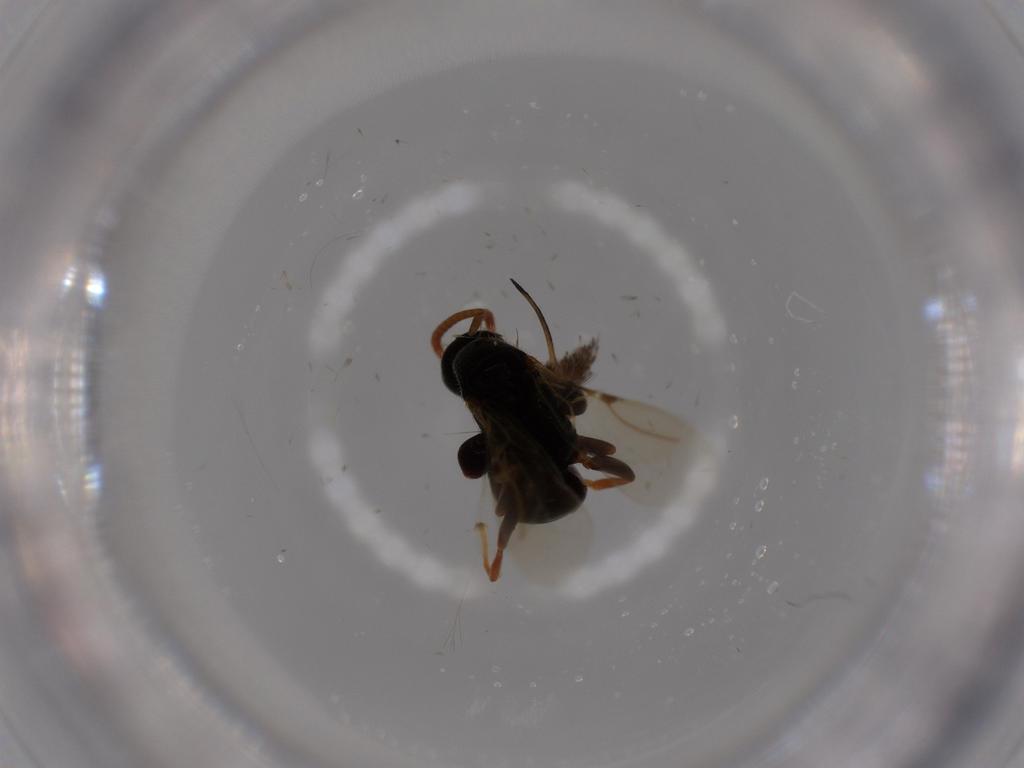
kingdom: Animalia
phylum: Arthropoda
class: Insecta
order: Hymenoptera
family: Bethylidae
